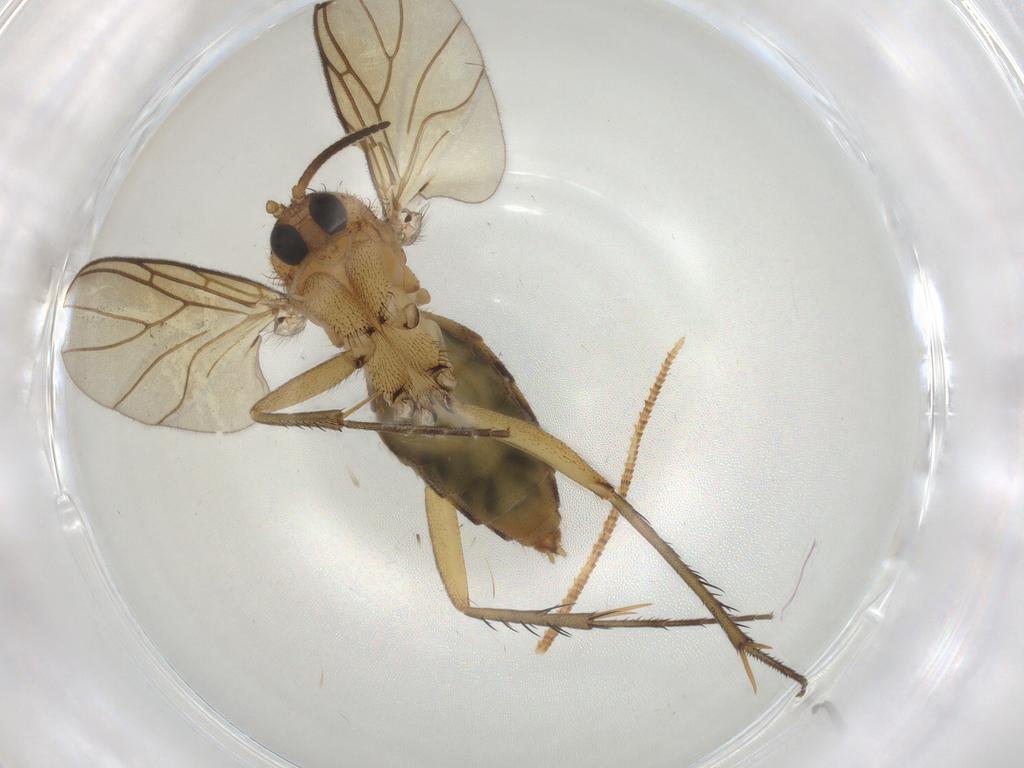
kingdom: Animalia
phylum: Arthropoda
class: Insecta
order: Diptera
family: Mycetophilidae
